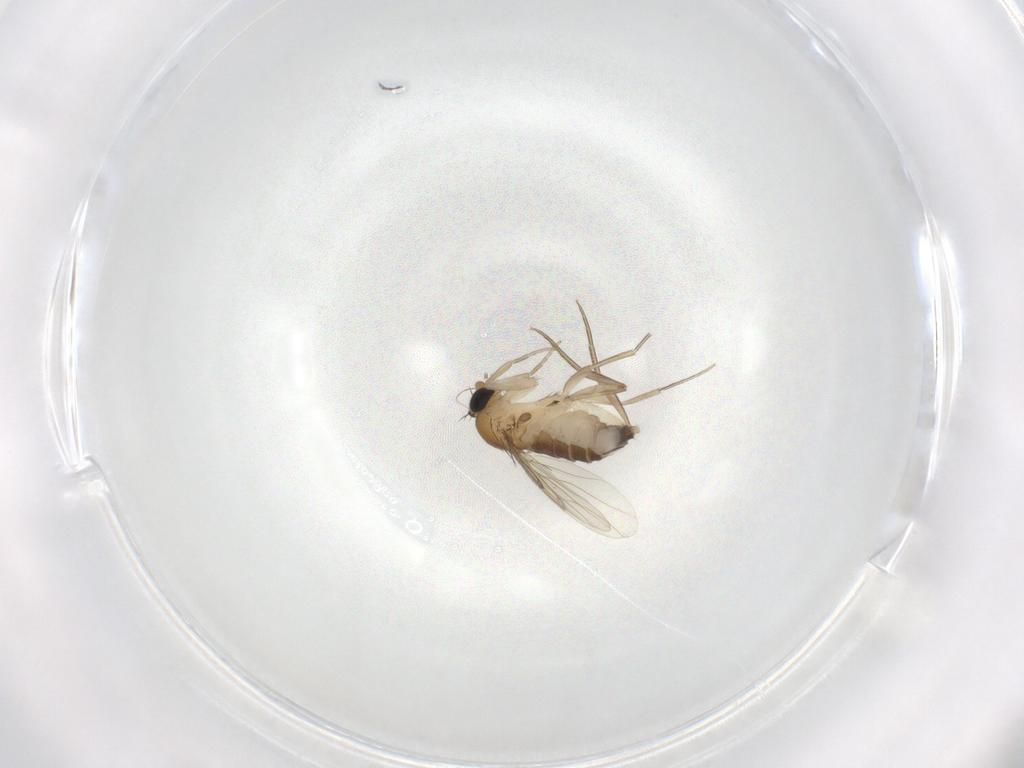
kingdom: Animalia
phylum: Arthropoda
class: Insecta
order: Diptera
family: Phoridae
